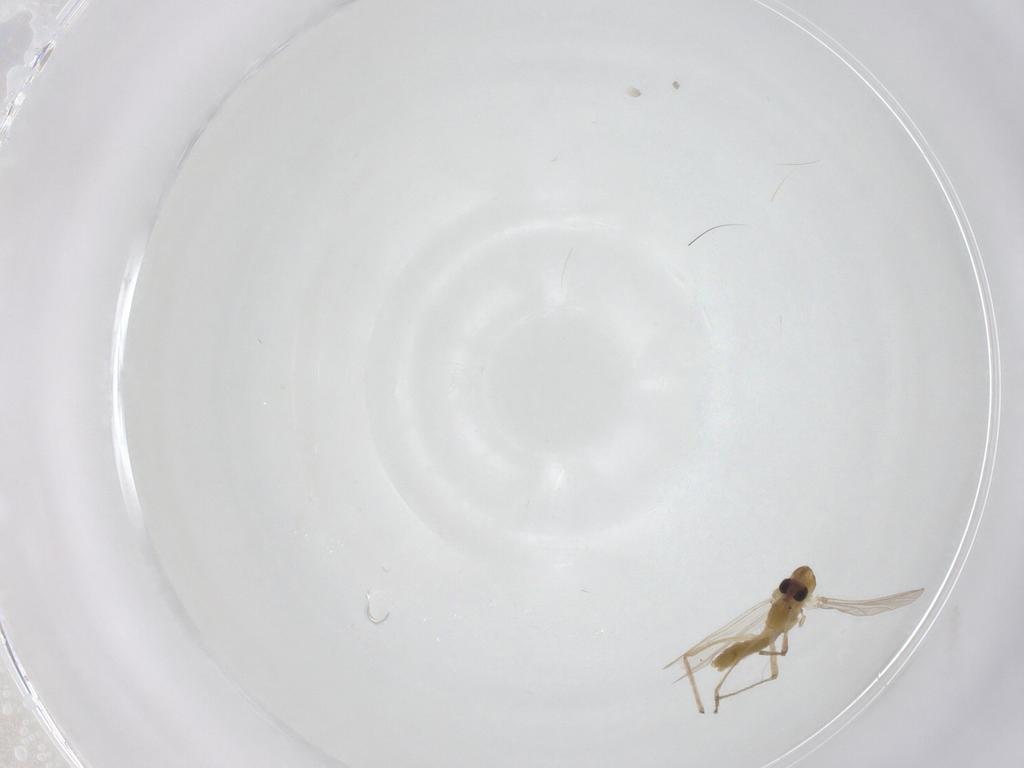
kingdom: Animalia
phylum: Arthropoda
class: Insecta
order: Diptera
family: Chironomidae
